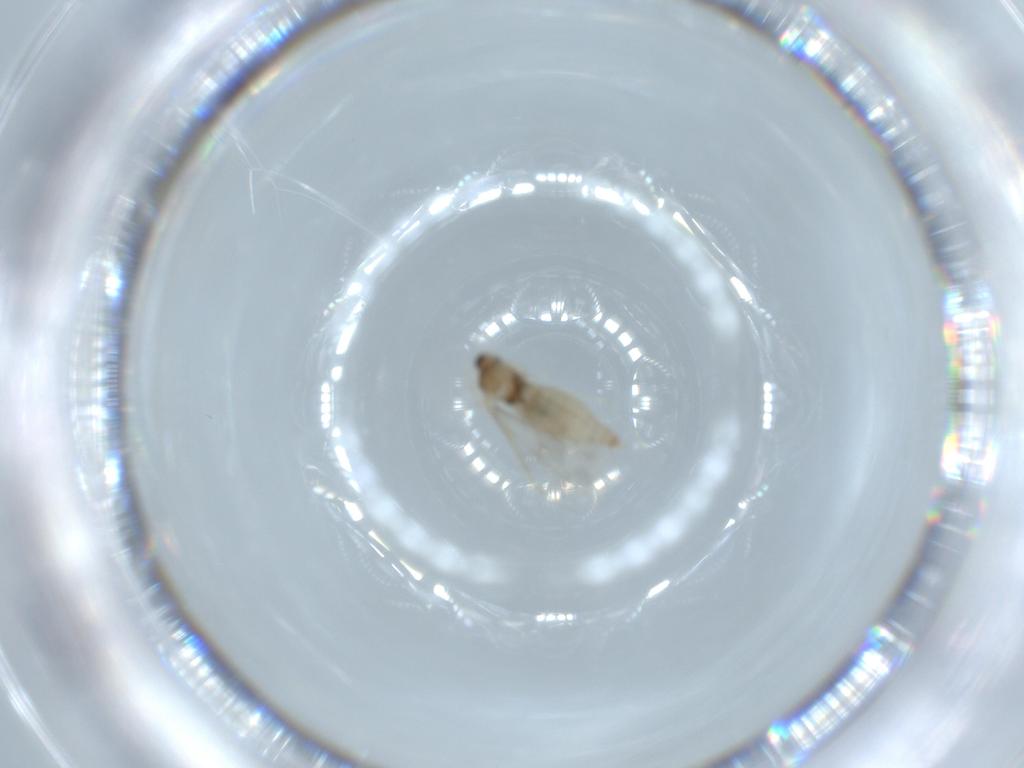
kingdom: Animalia
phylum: Arthropoda
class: Insecta
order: Diptera
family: Cecidomyiidae
